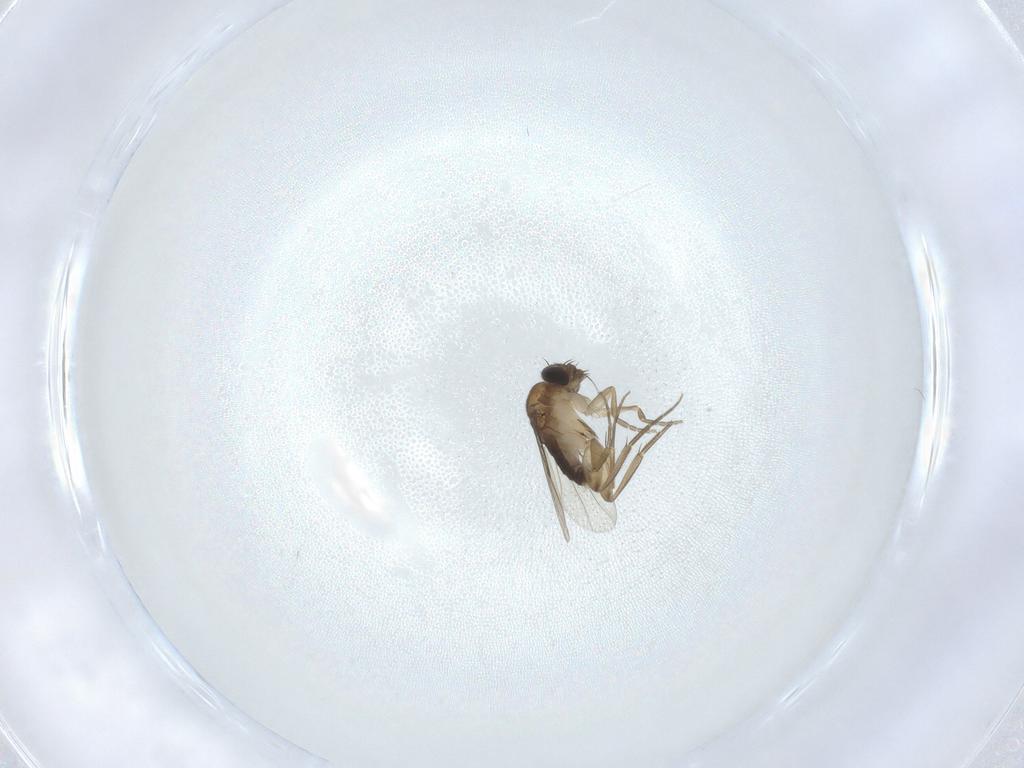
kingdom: Animalia
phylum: Arthropoda
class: Insecta
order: Diptera
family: Phoridae
